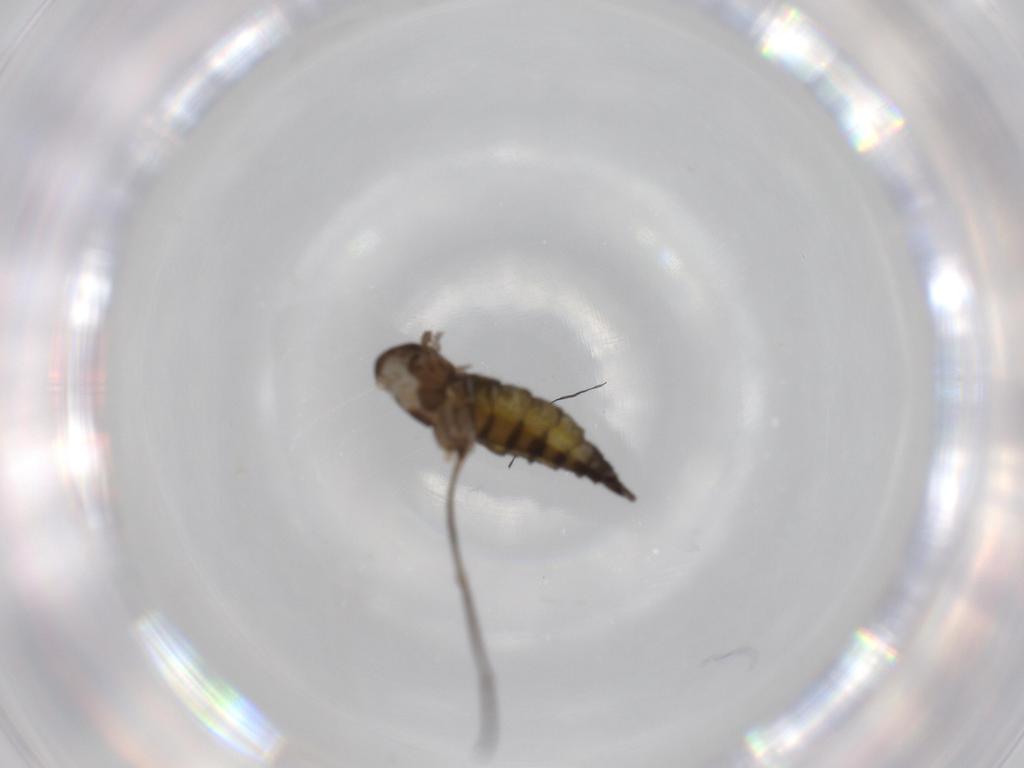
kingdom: Animalia
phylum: Arthropoda
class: Insecta
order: Diptera
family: Sciaridae
